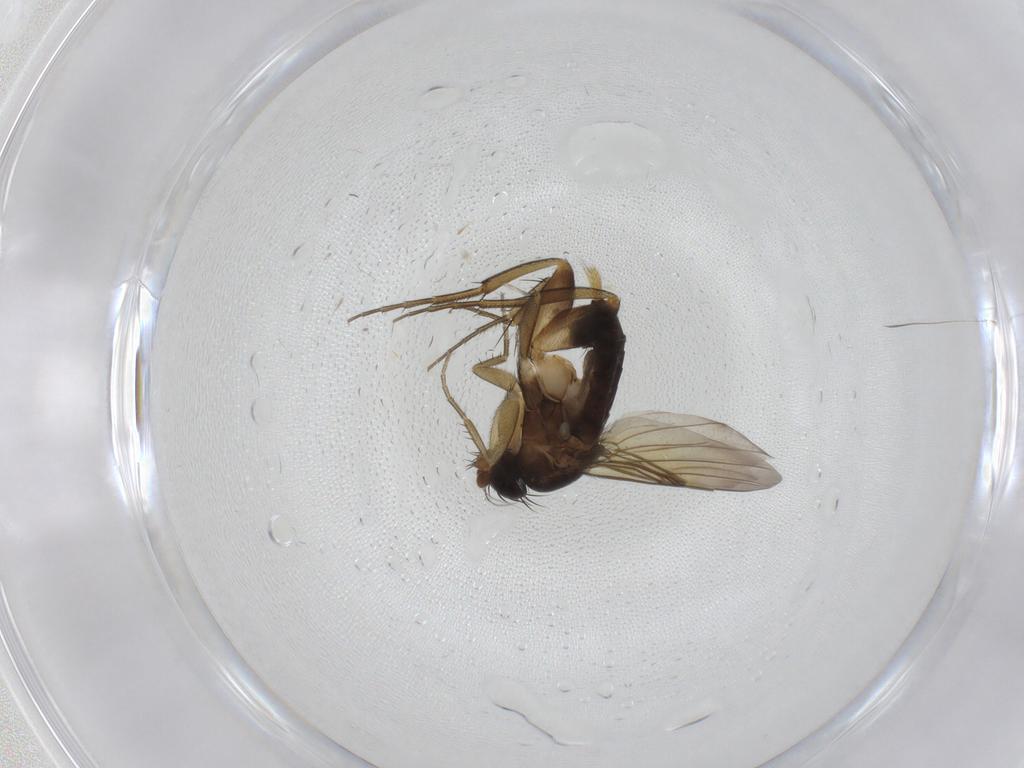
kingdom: Animalia
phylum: Arthropoda
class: Insecta
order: Diptera
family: Phoridae
